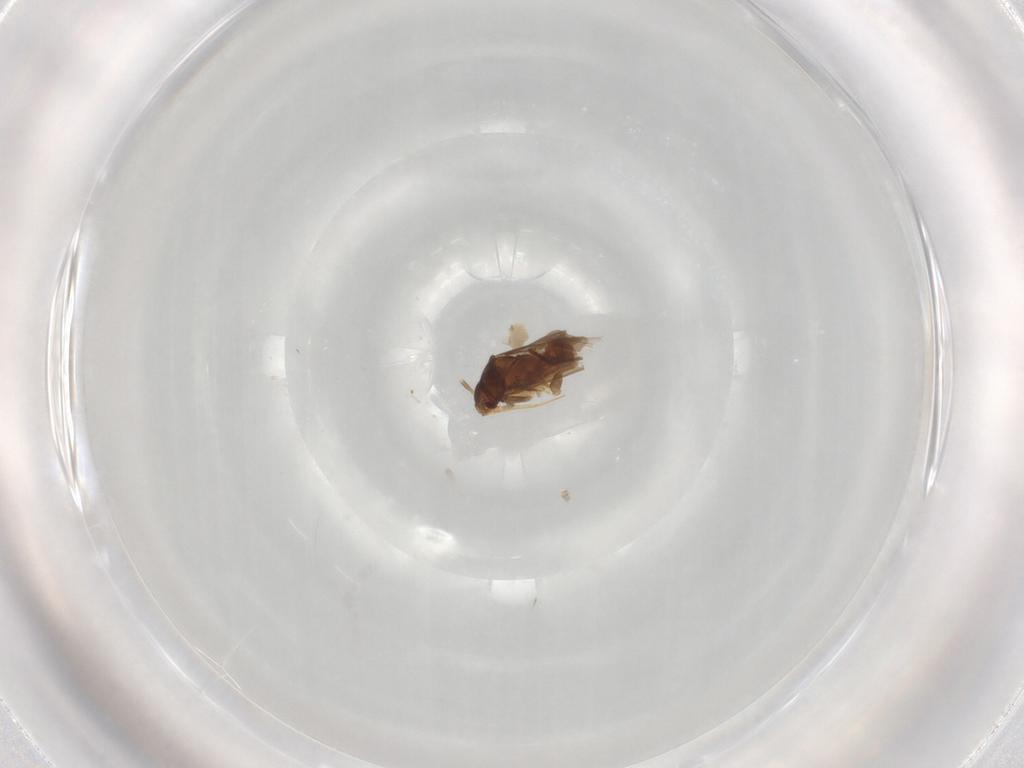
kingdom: Animalia
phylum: Arthropoda
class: Insecta
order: Hemiptera
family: Ceratocombidae
